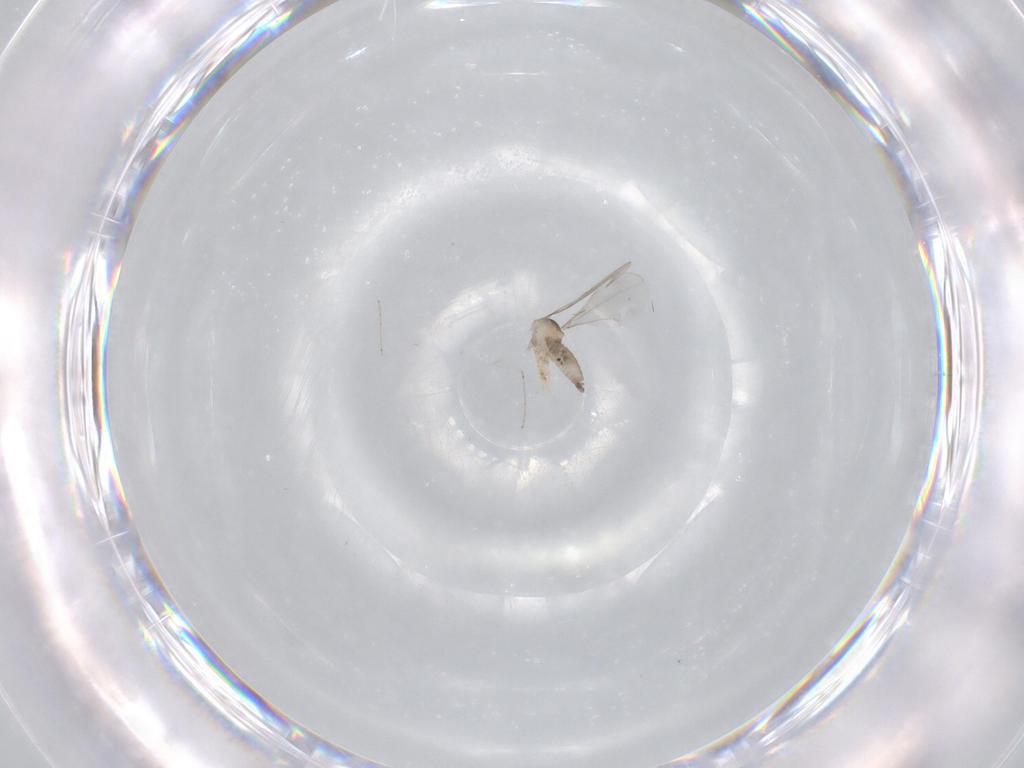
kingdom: Animalia
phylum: Arthropoda
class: Insecta
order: Diptera
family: Cecidomyiidae
